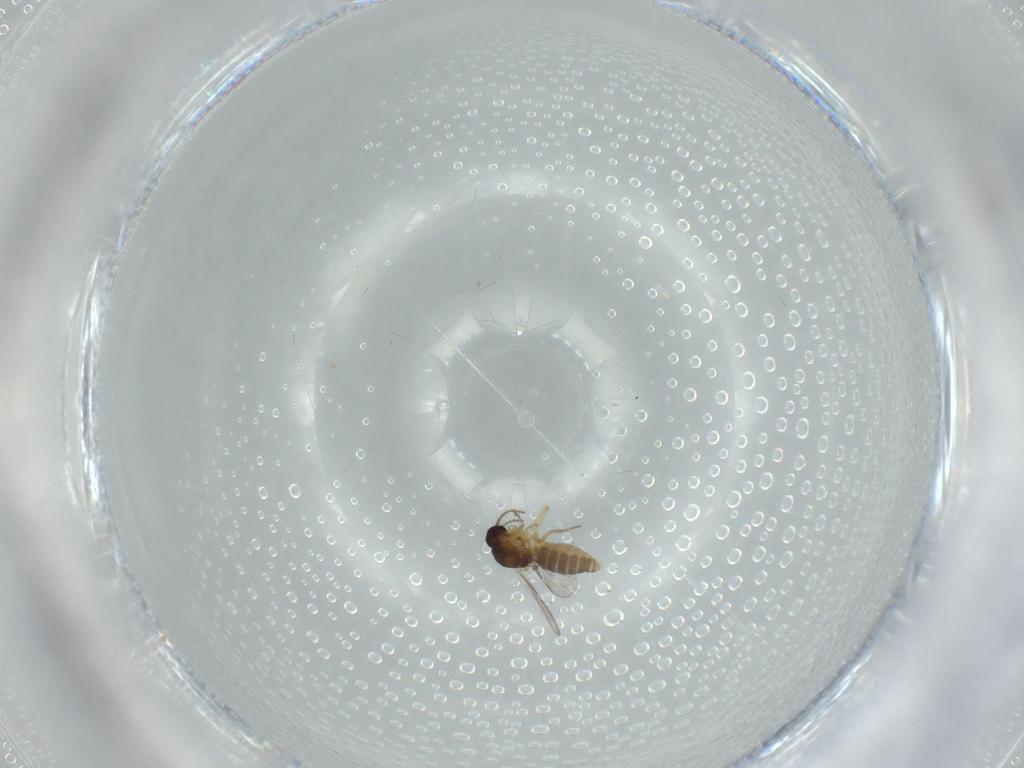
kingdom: Animalia
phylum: Arthropoda
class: Insecta
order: Diptera
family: Ceratopogonidae
